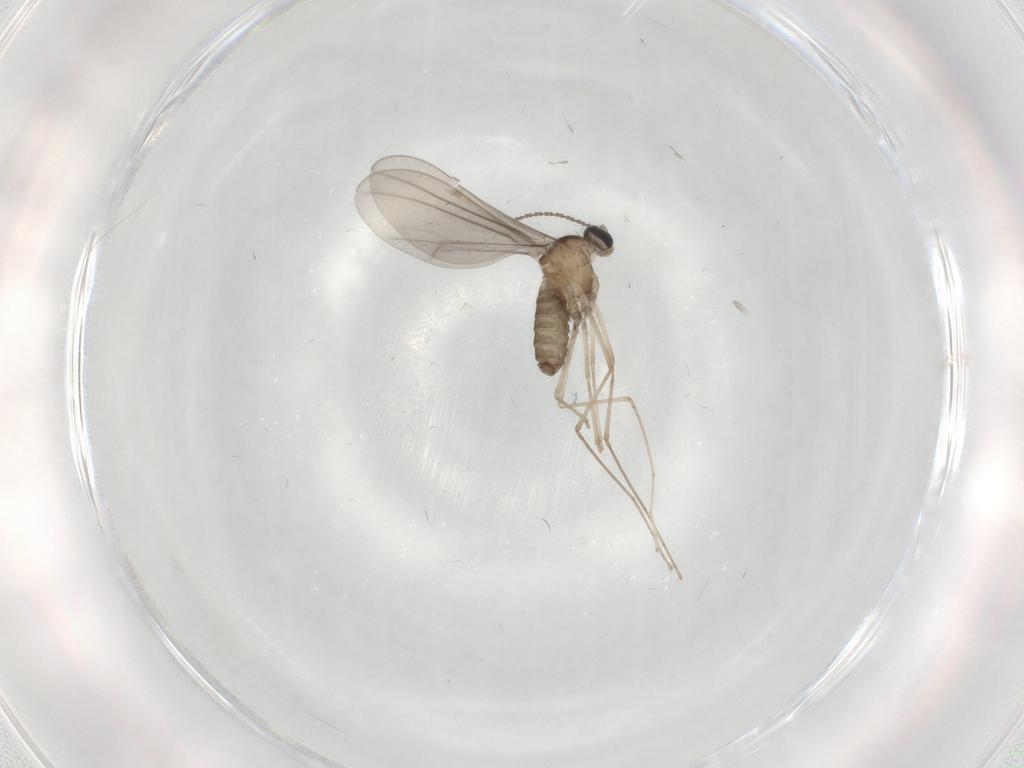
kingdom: Animalia
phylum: Arthropoda
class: Insecta
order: Diptera
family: Cecidomyiidae
